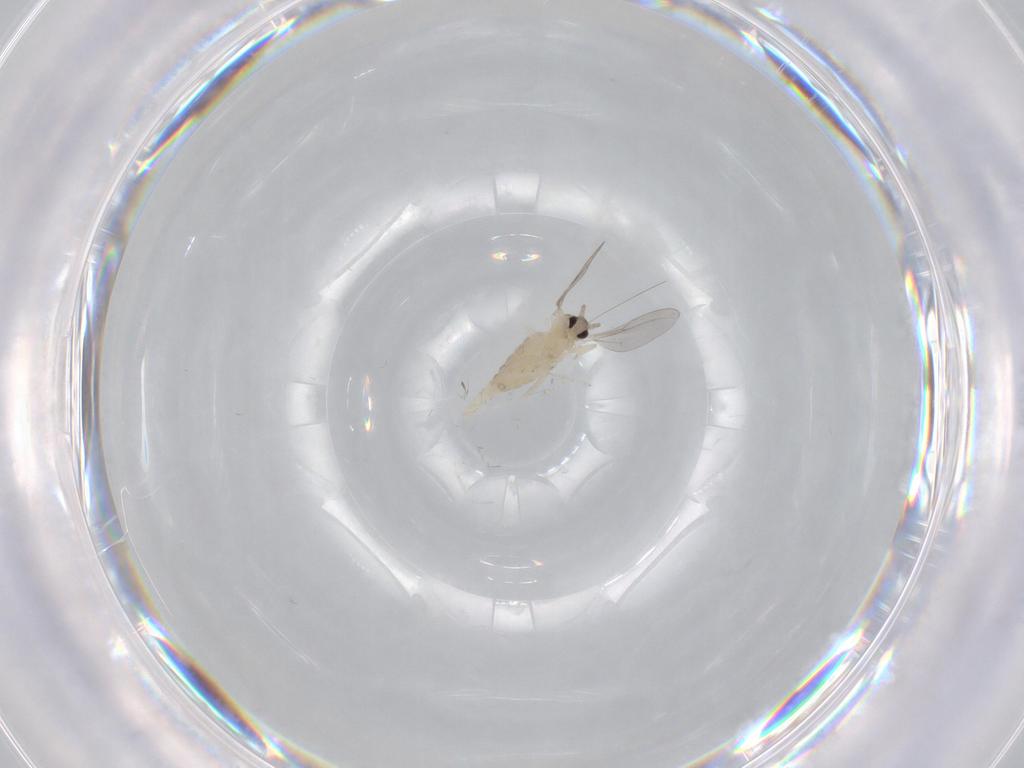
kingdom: Animalia
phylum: Arthropoda
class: Insecta
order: Diptera
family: Cecidomyiidae
